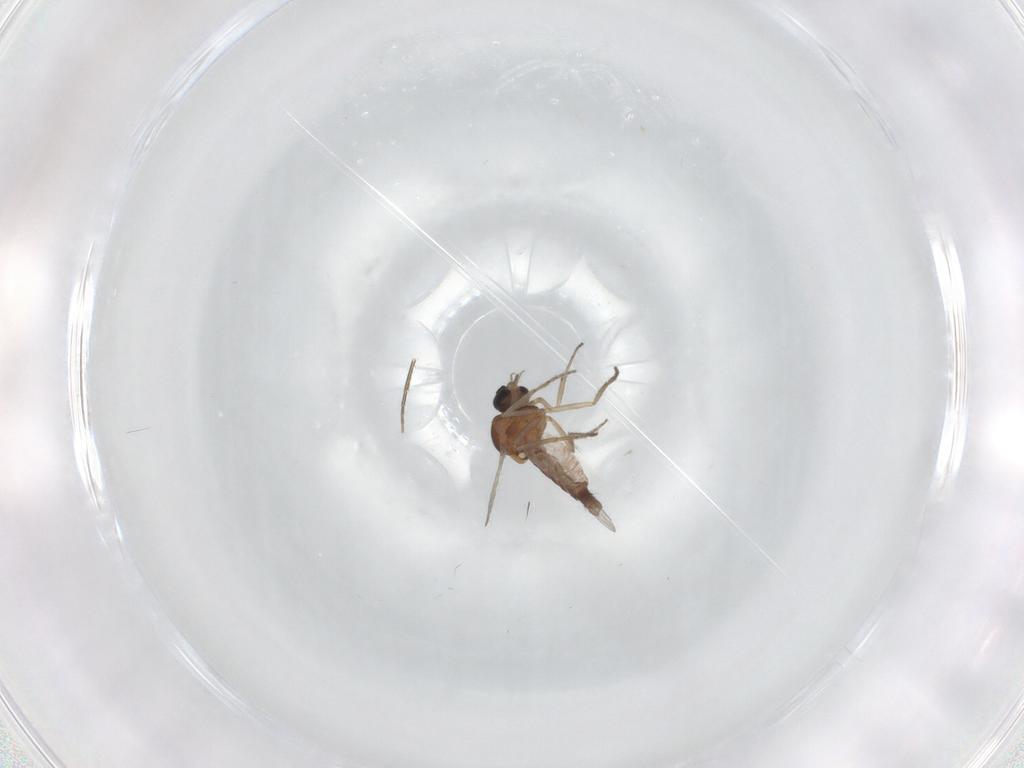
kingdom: Animalia
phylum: Arthropoda
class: Insecta
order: Diptera
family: Ceratopogonidae
